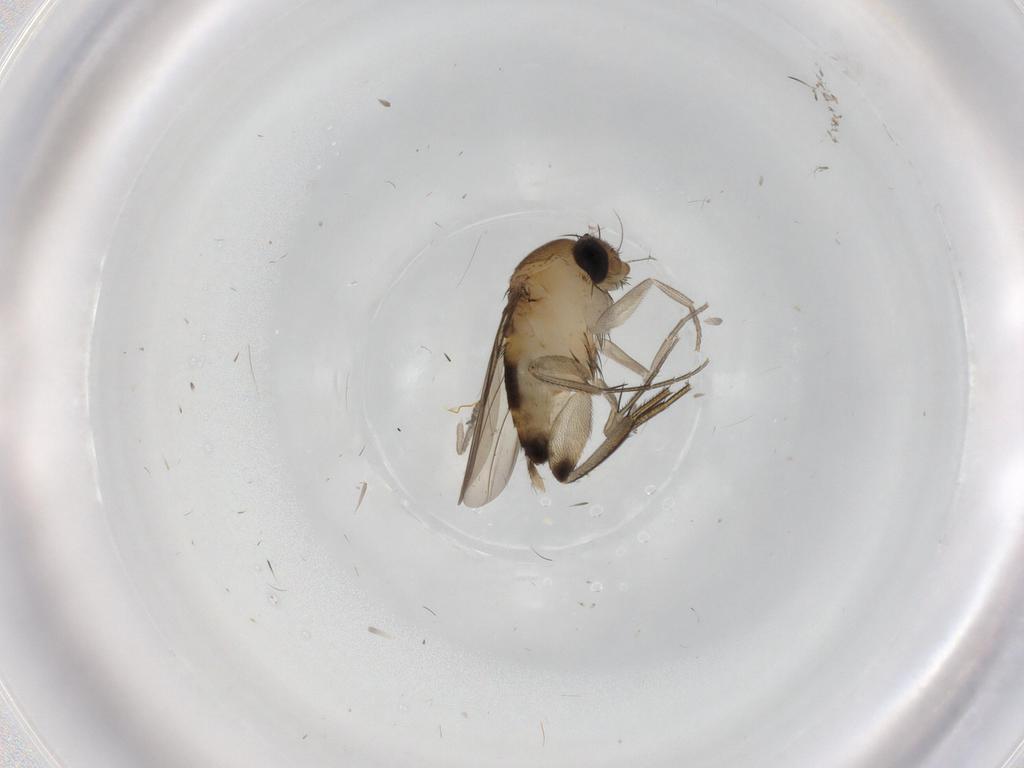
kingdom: Animalia
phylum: Arthropoda
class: Insecta
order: Diptera
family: Phoridae
